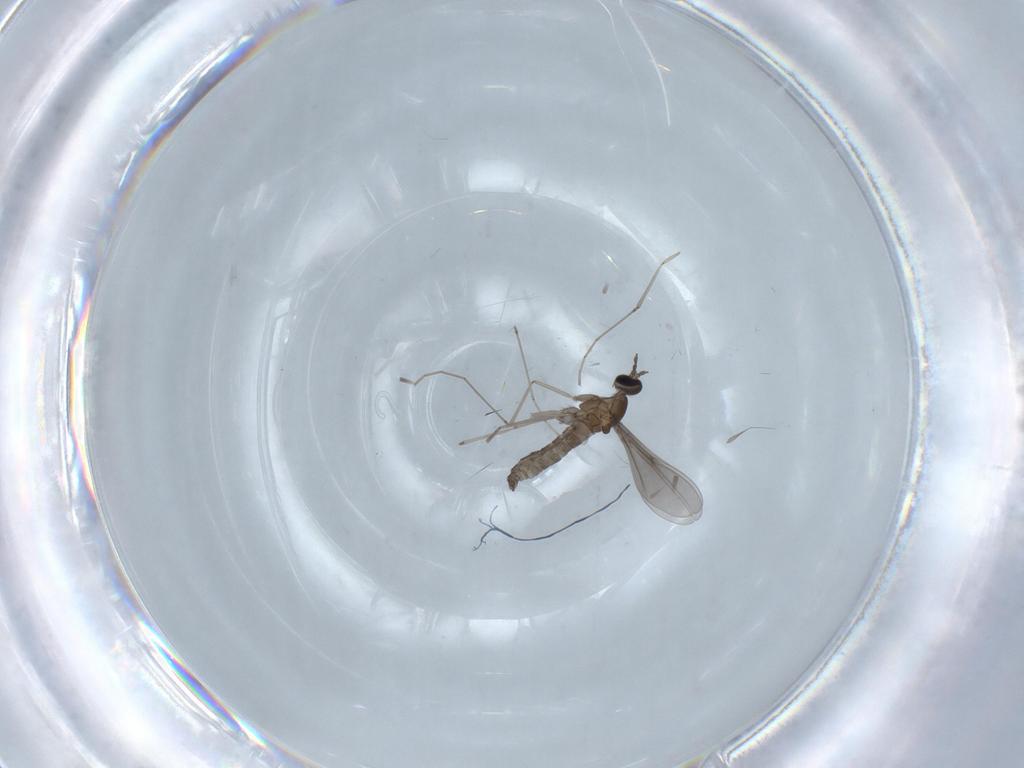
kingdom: Animalia
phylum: Arthropoda
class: Insecta
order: Diptera
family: Cecidomyiidae
